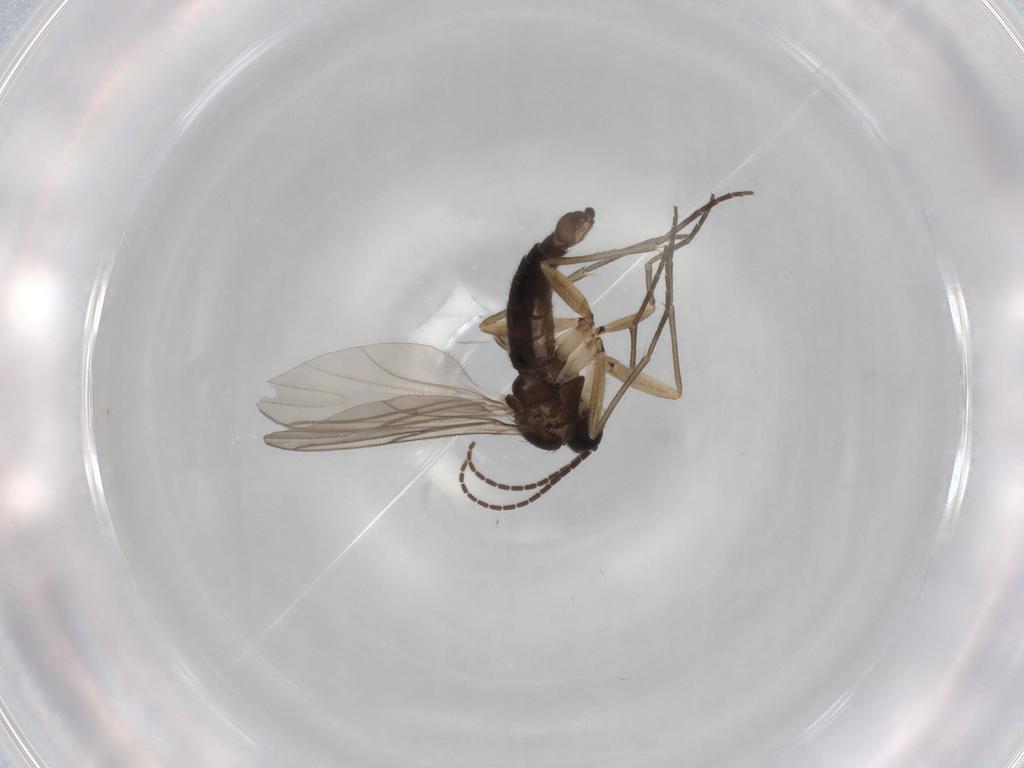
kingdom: Animalia
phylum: Arthropoda
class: Insecta
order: Diptera
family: Sciaridae
